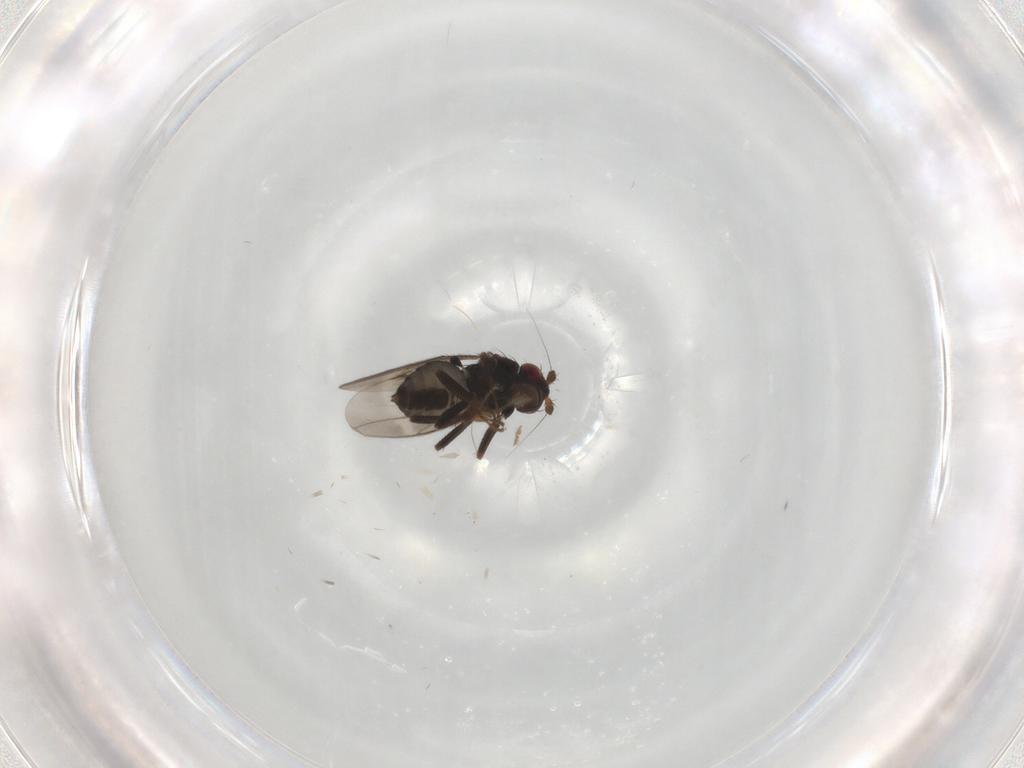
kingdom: Animalia
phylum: Arthropoda
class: Insecta
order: Diptera
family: Sphaeroceridae
